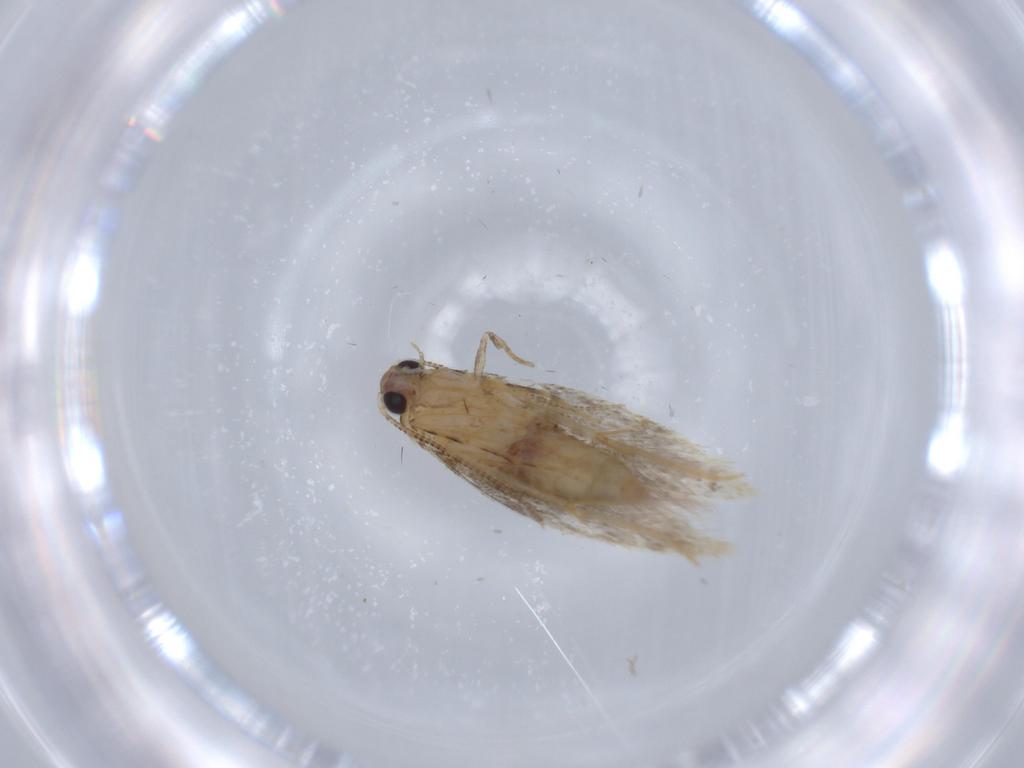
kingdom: Animalia
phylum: Arthropoda
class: Insecta
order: Lepidoptera
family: Tineidae
